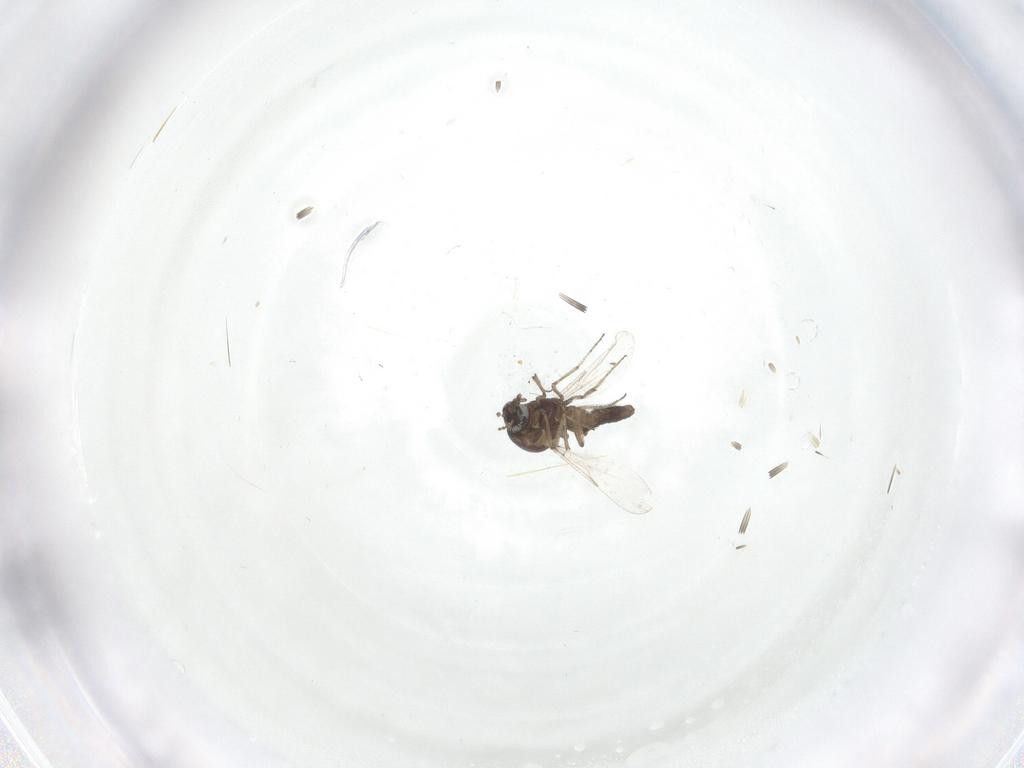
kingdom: Animalia
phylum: Arthropoda
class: Insecta
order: Diptera
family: Ceratopogonidae
